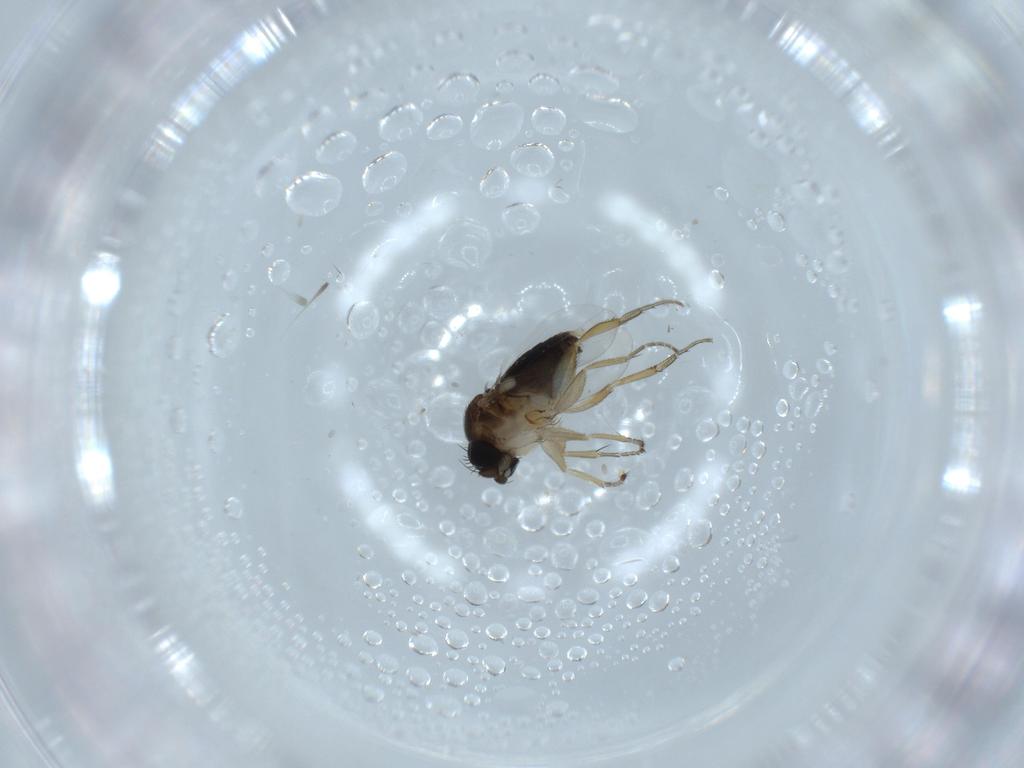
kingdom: Animalia
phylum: Arthropoda
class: Insecta
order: Diptera
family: Phoridae
